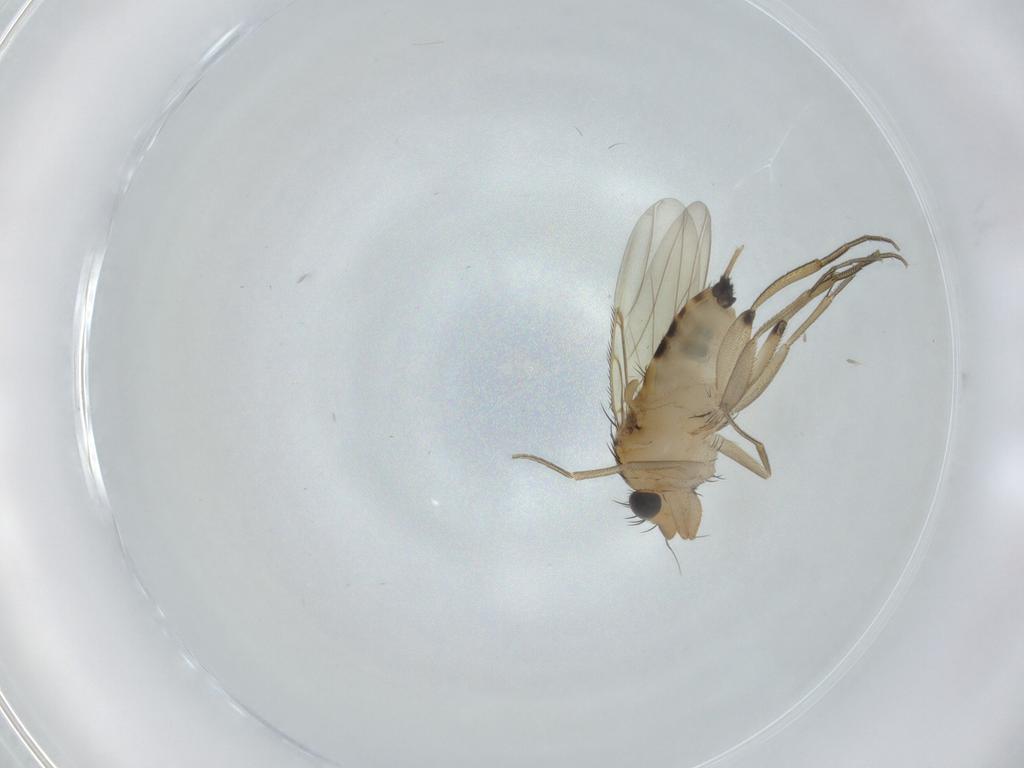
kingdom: Animalia
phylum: Arthropoda
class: Insecta
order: Diptera
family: Phoridae
